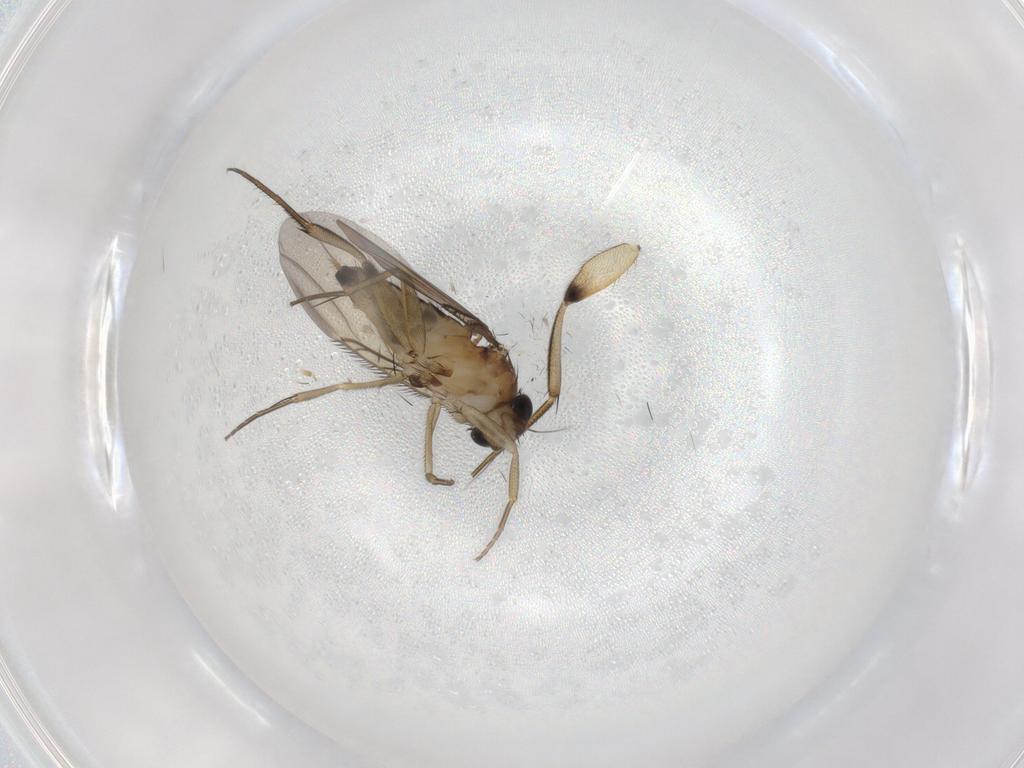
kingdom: Animalia
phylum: Arthropoda
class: Insecta
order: Diptera
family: Phoridae
